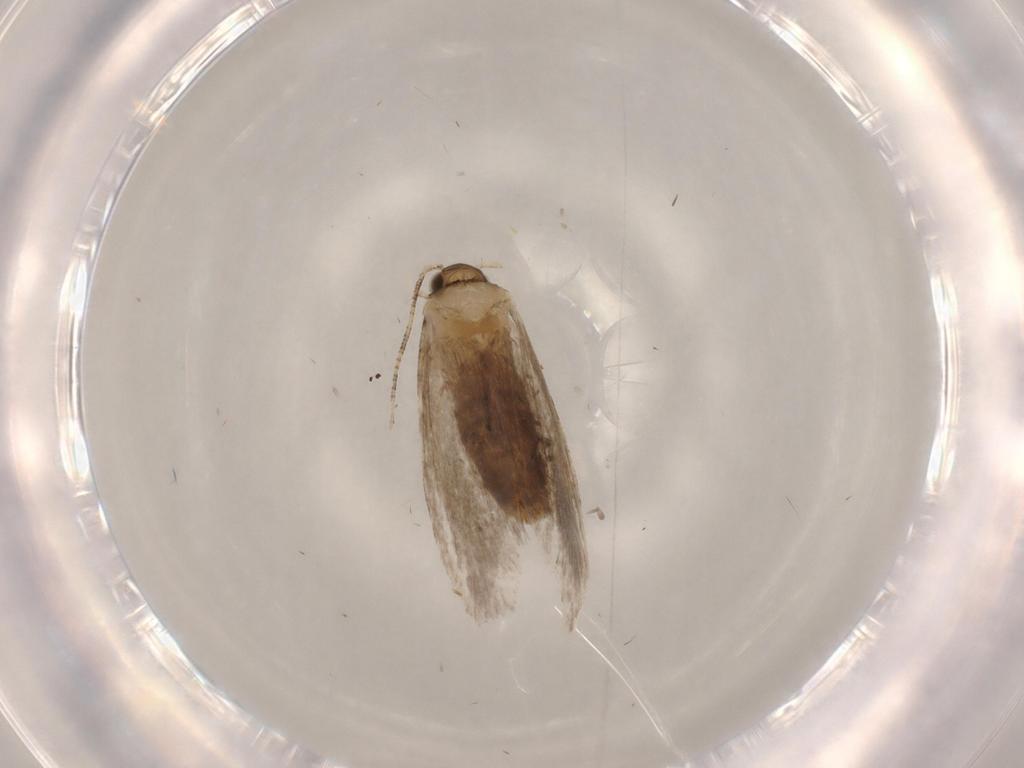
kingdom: Animalia
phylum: Arthropoda
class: Insecta
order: Lepidoptera
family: Tineidae
